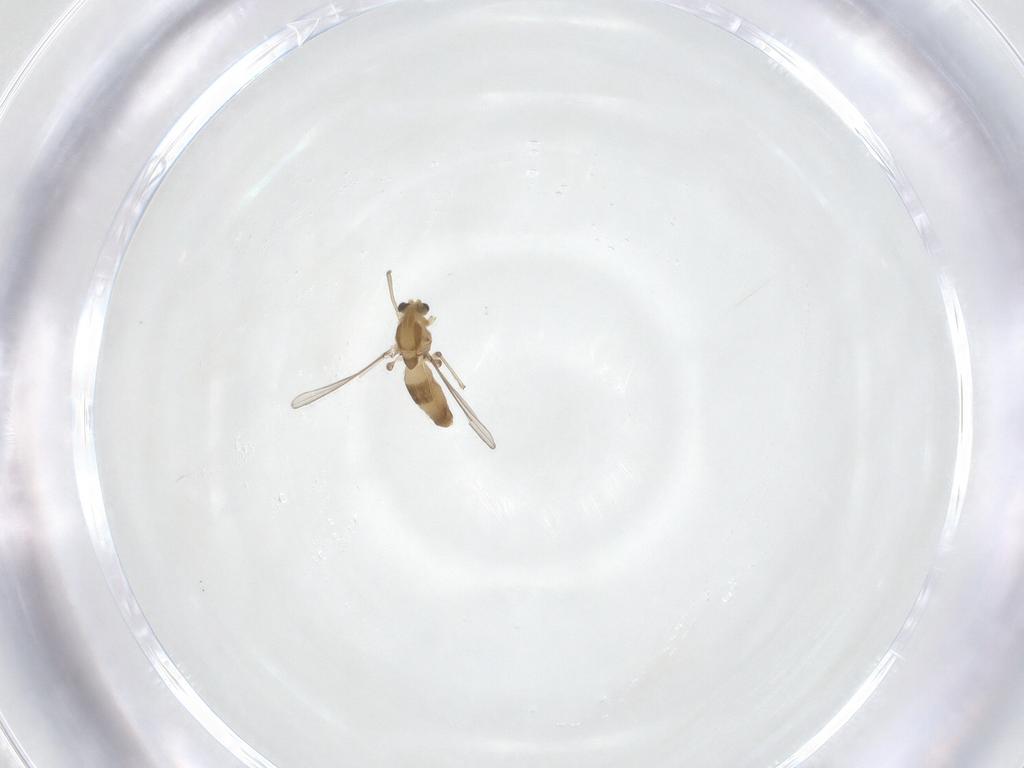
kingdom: Animalia
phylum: Arthropoda
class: Insecta
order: Diptera
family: Chironomidae
